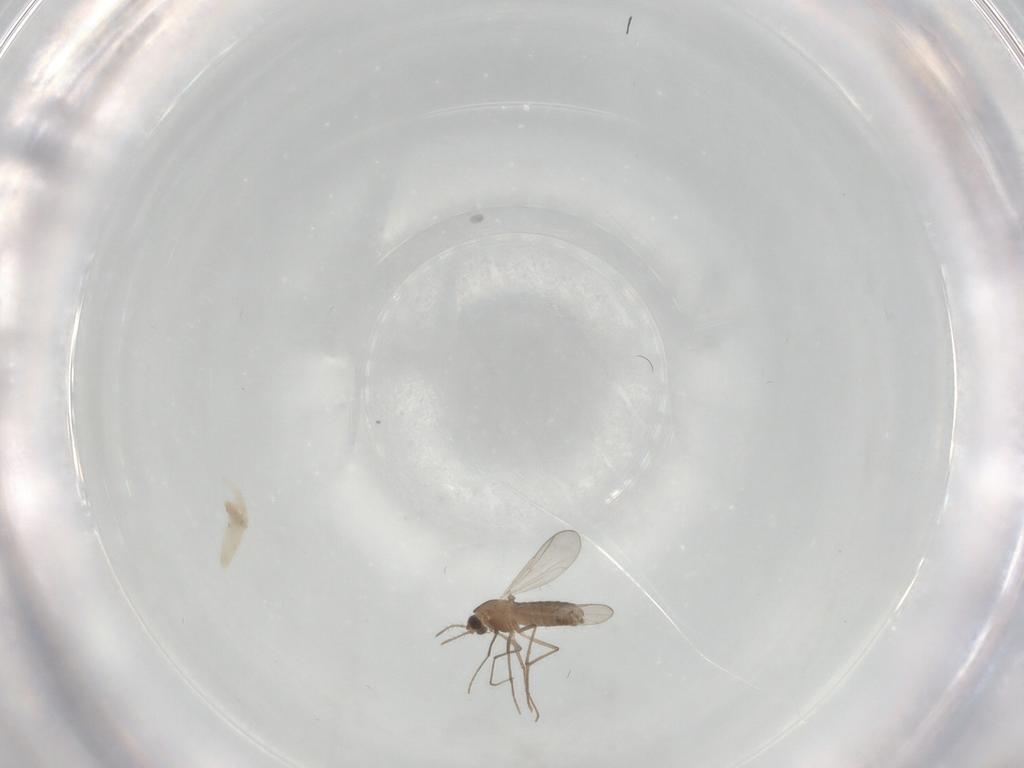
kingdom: Animalia
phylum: Arthropoda
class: Insecta
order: Diptera
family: Chironomidae
